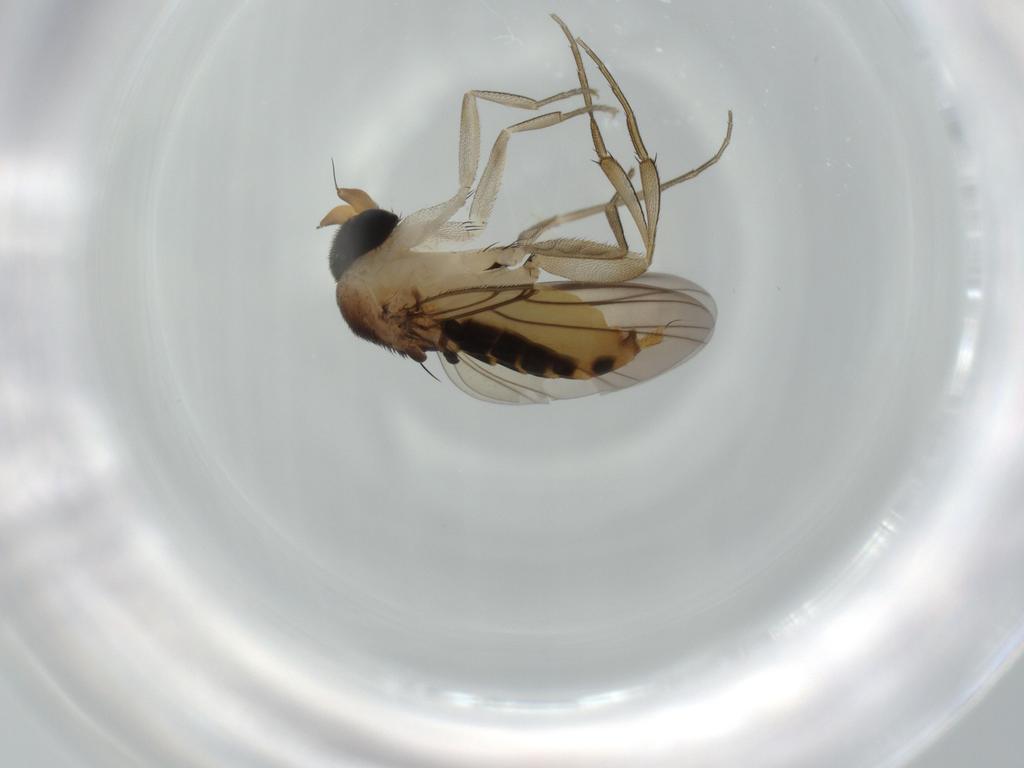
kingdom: Animalia
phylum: Arthropoda
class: Insecta
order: Diptera
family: Phoridae
